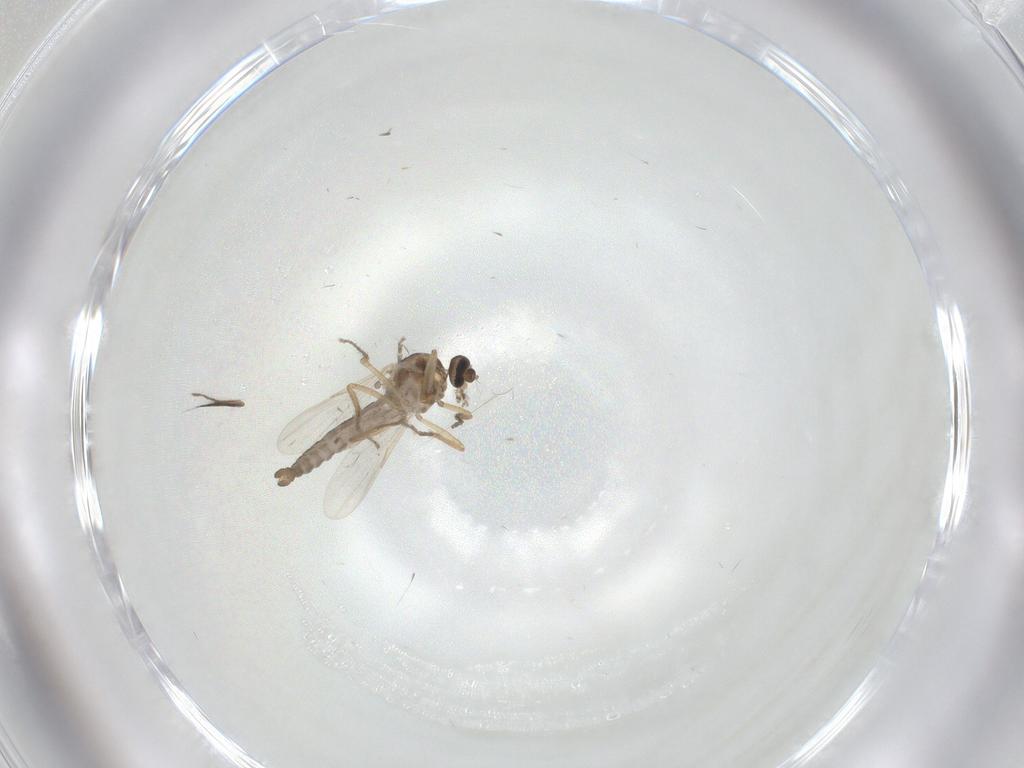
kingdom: Animalia
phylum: Arthropoda
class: Insecta
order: Diptera
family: Ceratopogonidae
